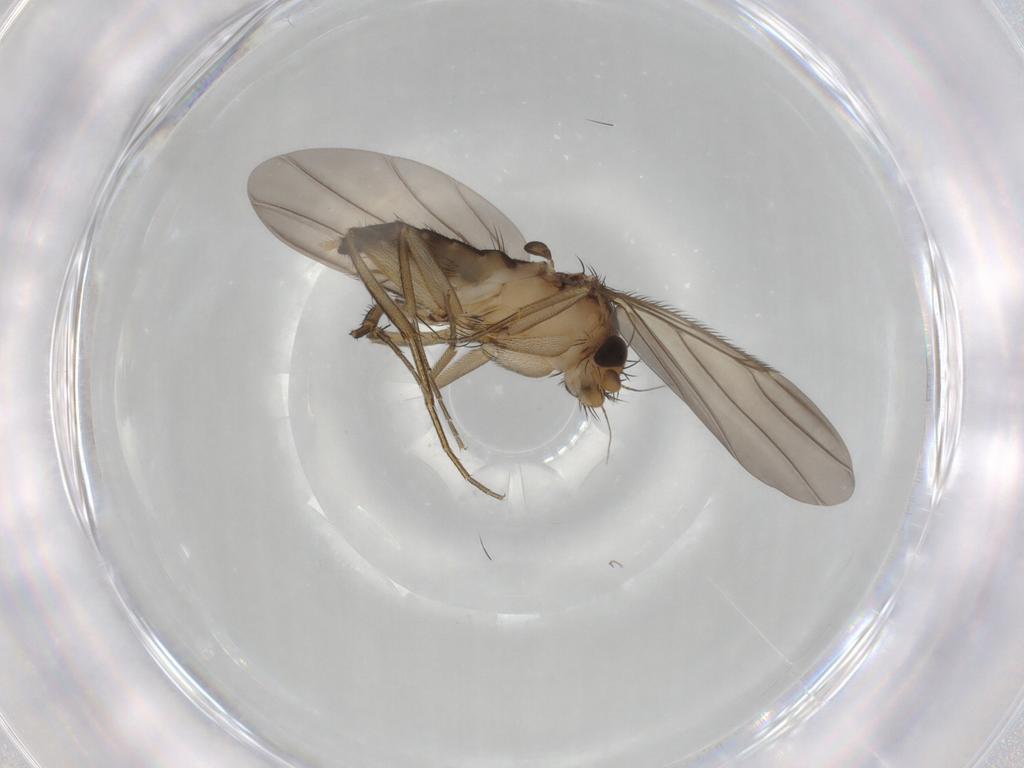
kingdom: Animalia
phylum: Arthropoda
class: Insecta
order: Diptera
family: Phoridae
